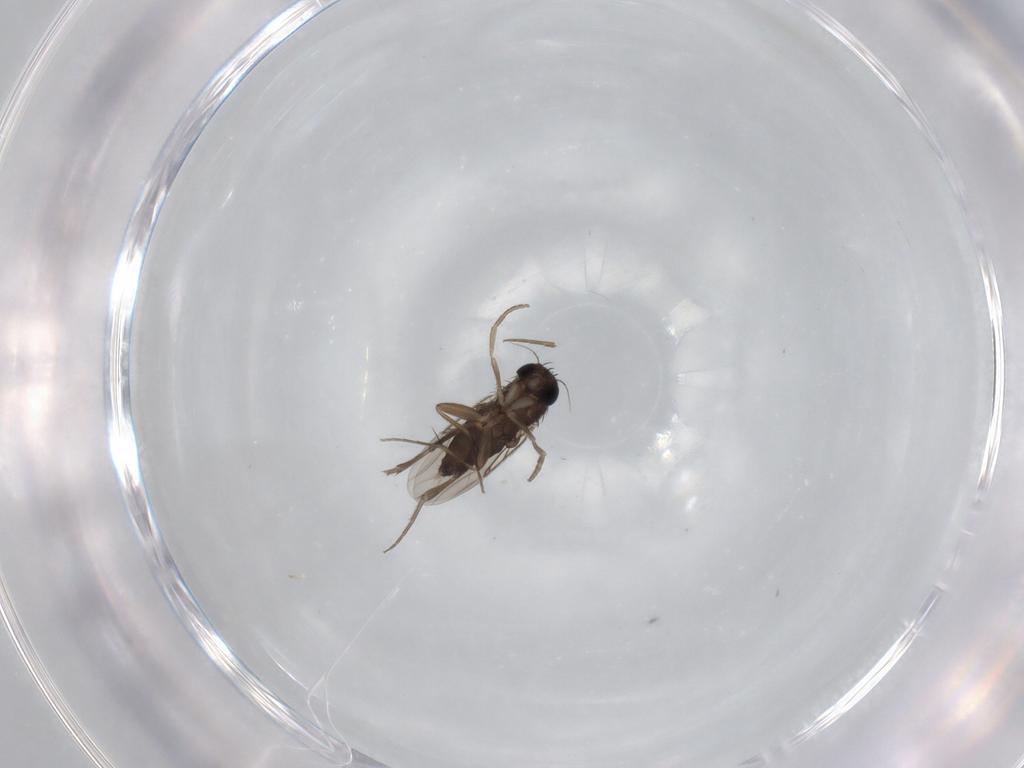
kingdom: Animalia
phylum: Arthropoda
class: Insecta
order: Diptera
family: Phoridae
